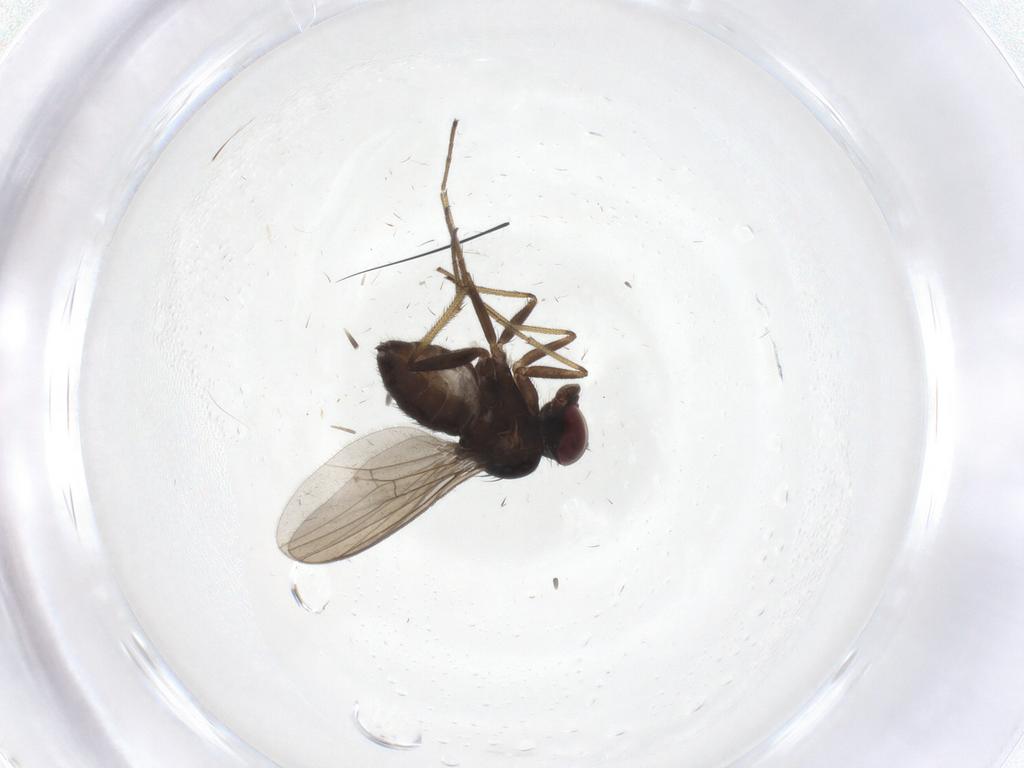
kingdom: Animalia
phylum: Arthropoda
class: Insecta
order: Diptera
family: Dolichopodidae
